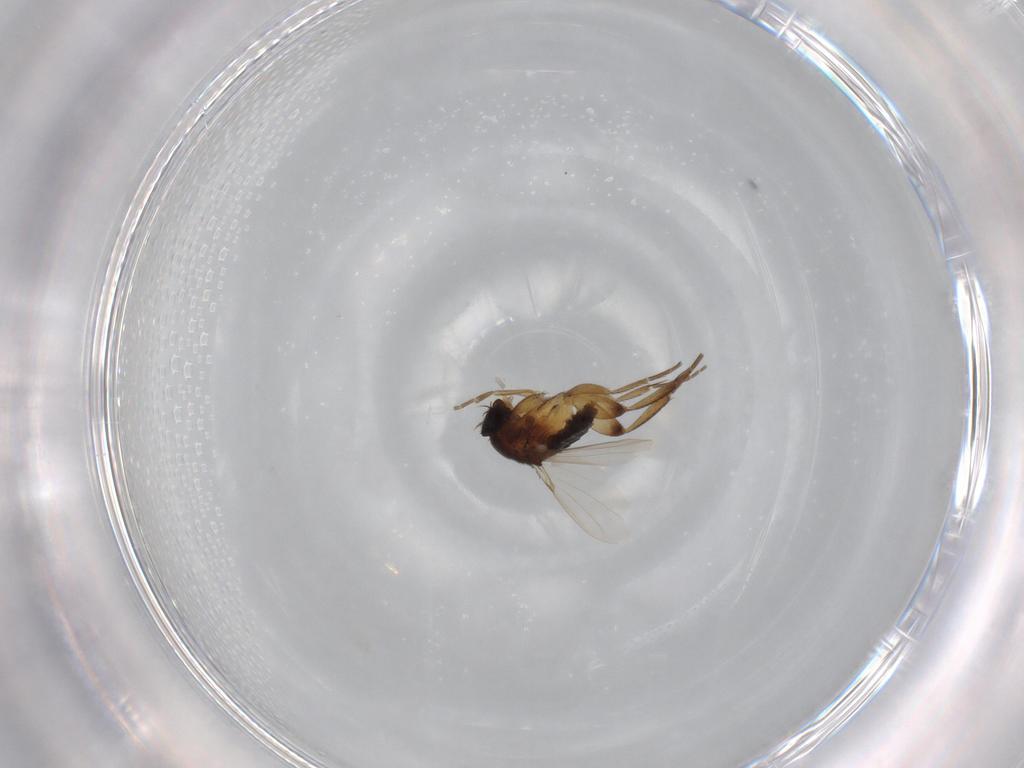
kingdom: Animalia
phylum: Arthropoda
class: Insecta
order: Diptera
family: Phoridae
